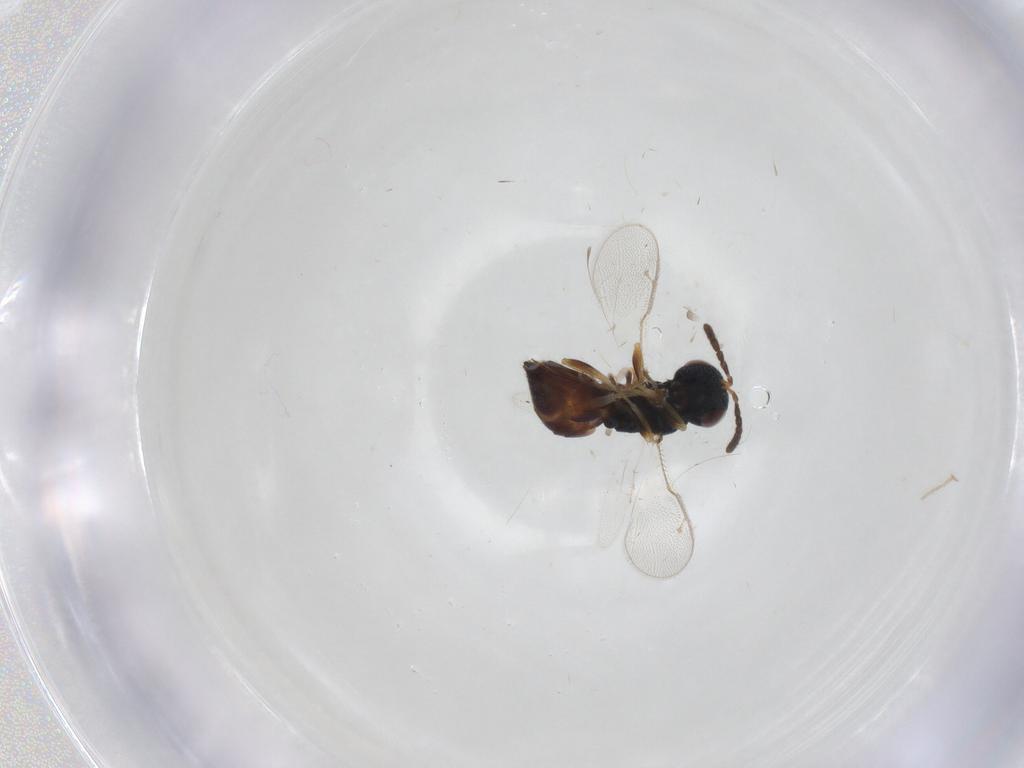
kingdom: Animalia
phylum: Arthropoda
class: Insecta
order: Hymenoptera
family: Pteromalidae
